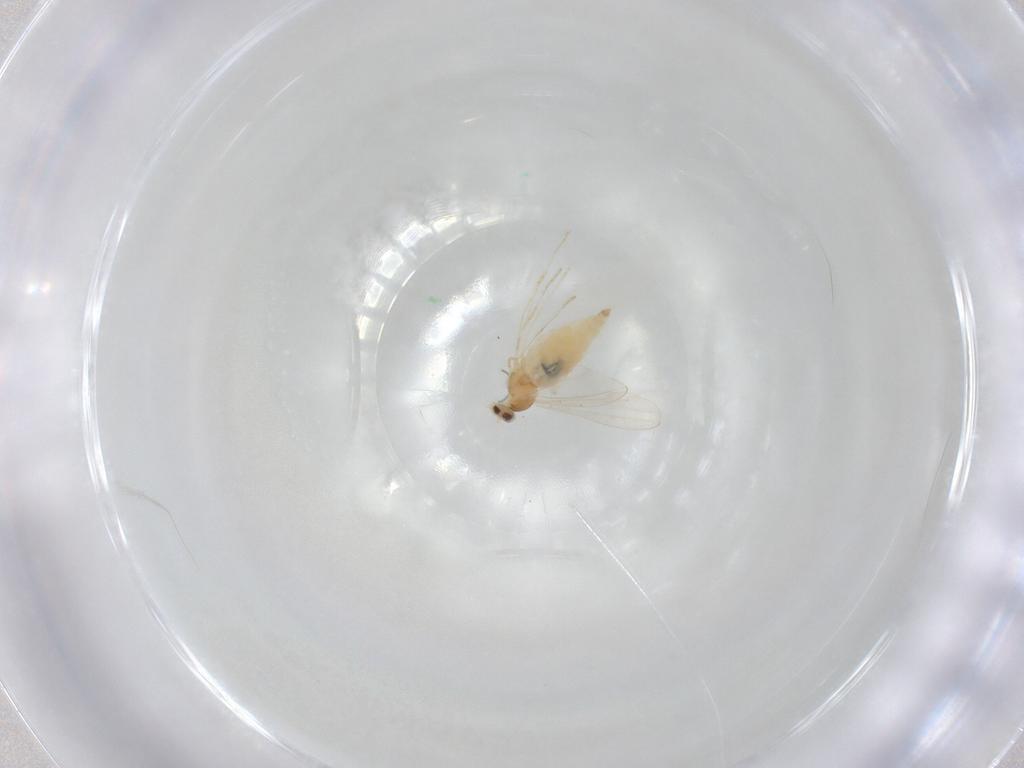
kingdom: Animalia
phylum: Arthropoda
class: Insecta
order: Diptera
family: Cecidomyiidae
